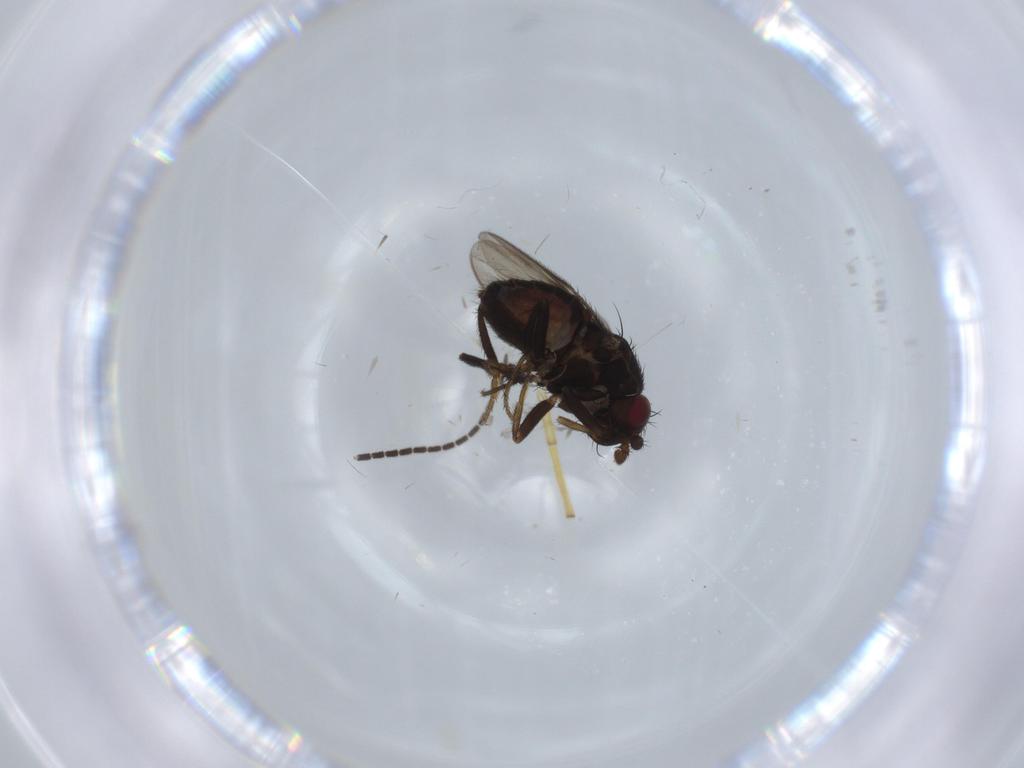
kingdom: Animalia
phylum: Arthropoda
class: Insecta
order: Diptera
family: Sciaridae
